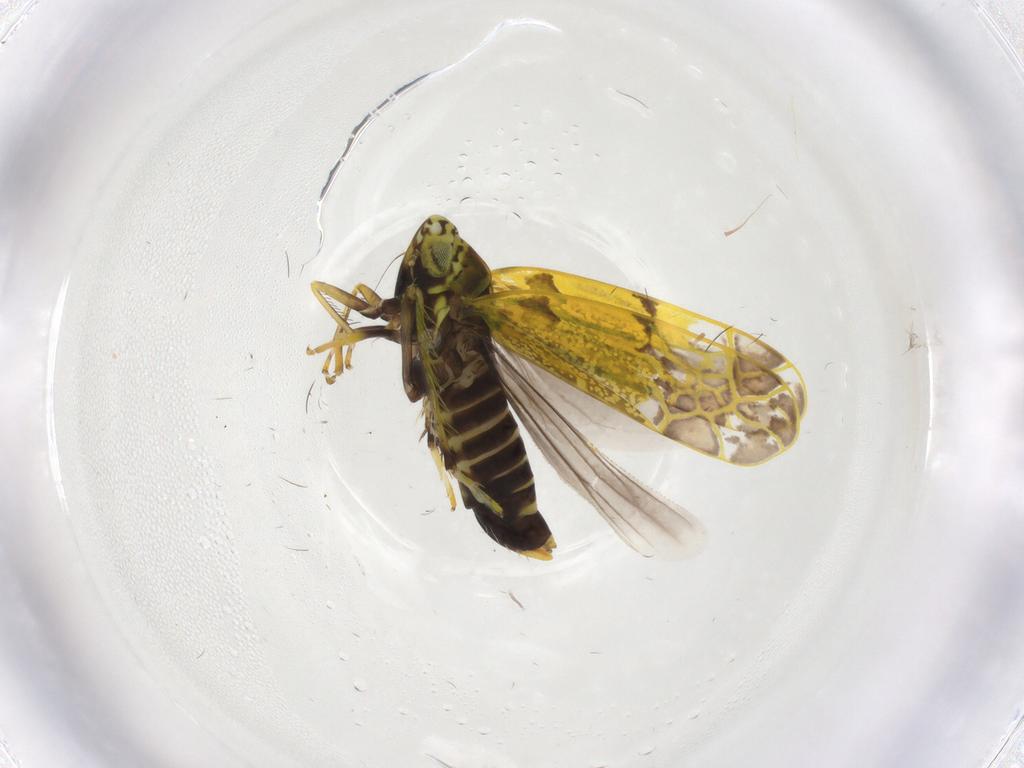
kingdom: Animalia
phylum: Arthropoda
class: Insecta
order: Hemiptera
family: Cicadellidae
